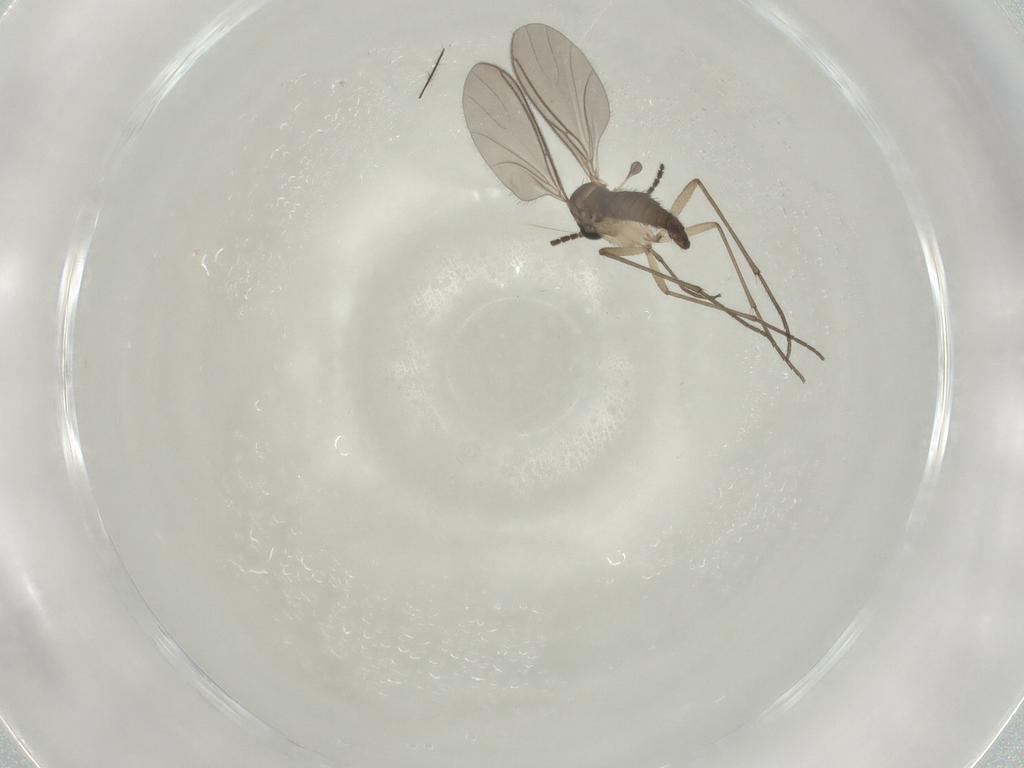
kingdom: Animalia
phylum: Arthropoda
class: Insecta
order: Diptera
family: Sciaridae
